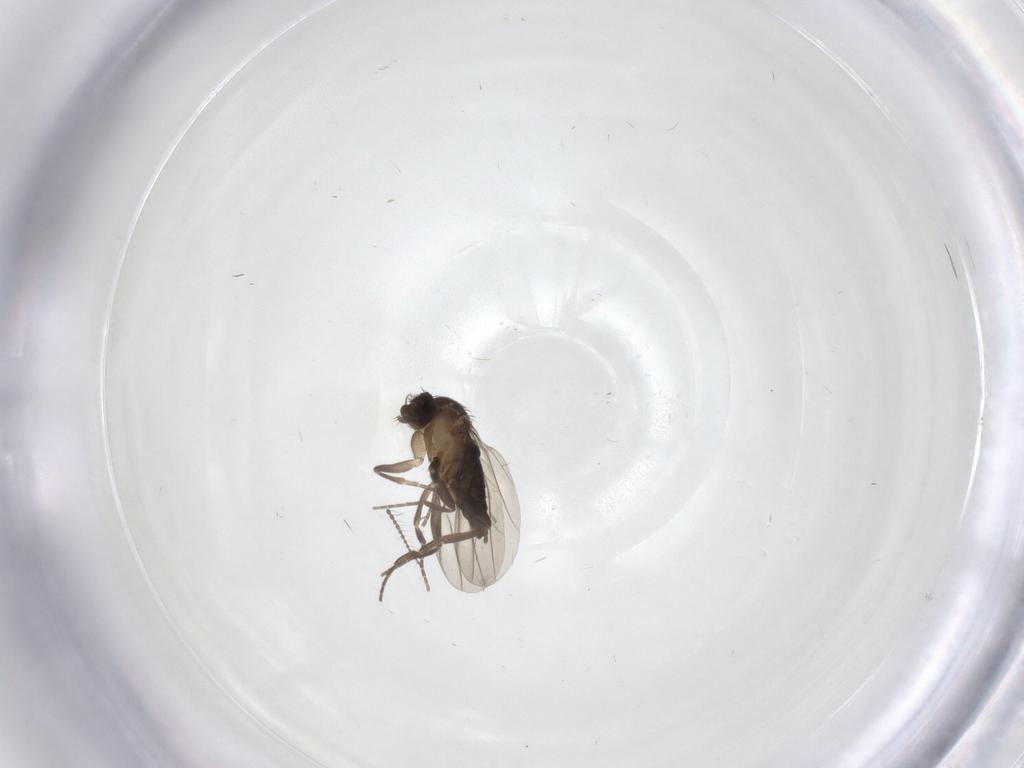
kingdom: Animalia
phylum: Arthropoda
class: Insecta
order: Diptera
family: Phoridae
